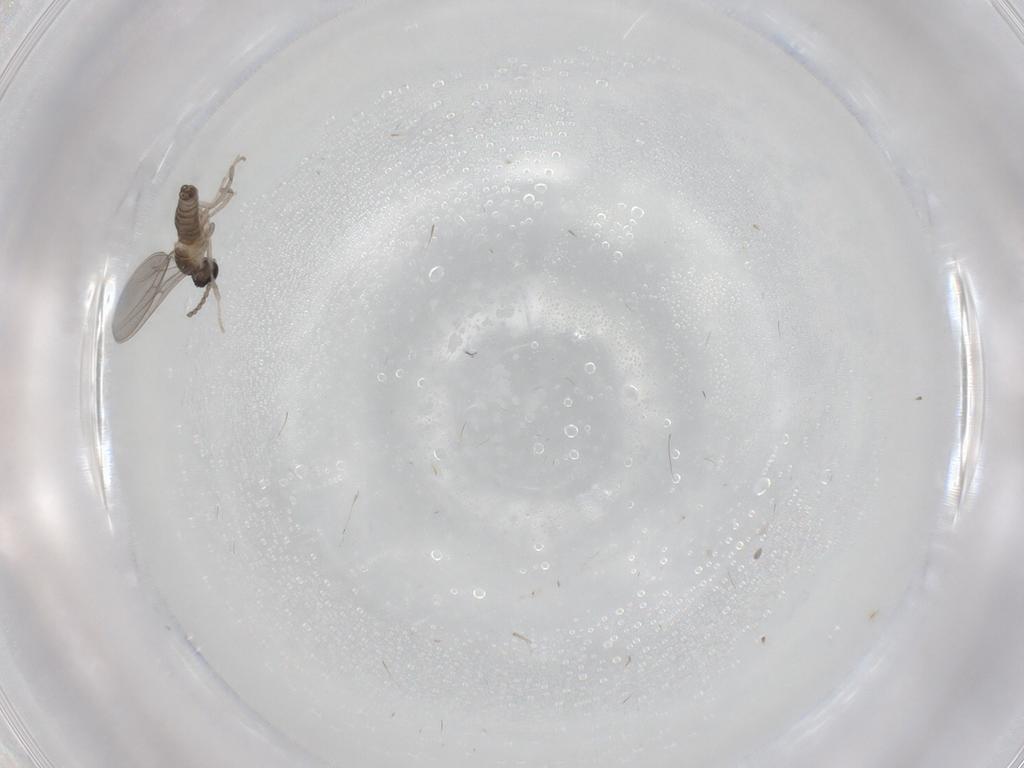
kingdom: Animalia
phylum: Arthropoda
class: Insecta
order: Diptera
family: Cecidomyiidae
